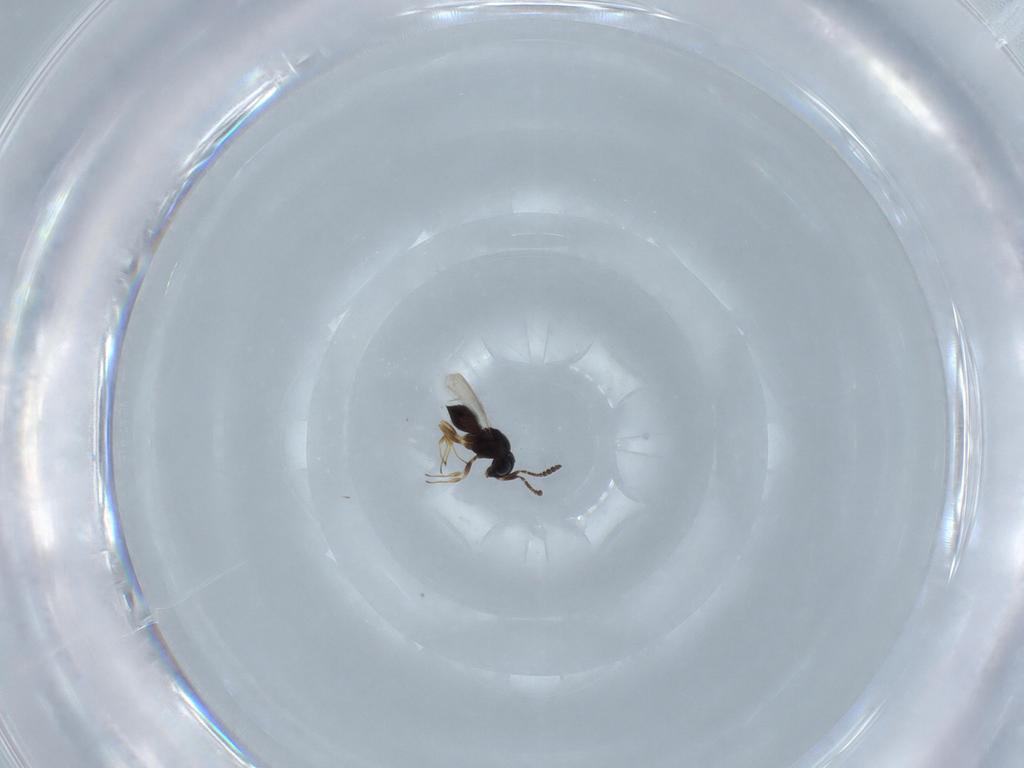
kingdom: Animalia
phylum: Arthropoda
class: Insecta
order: Hymenoptera
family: Scelionidae
